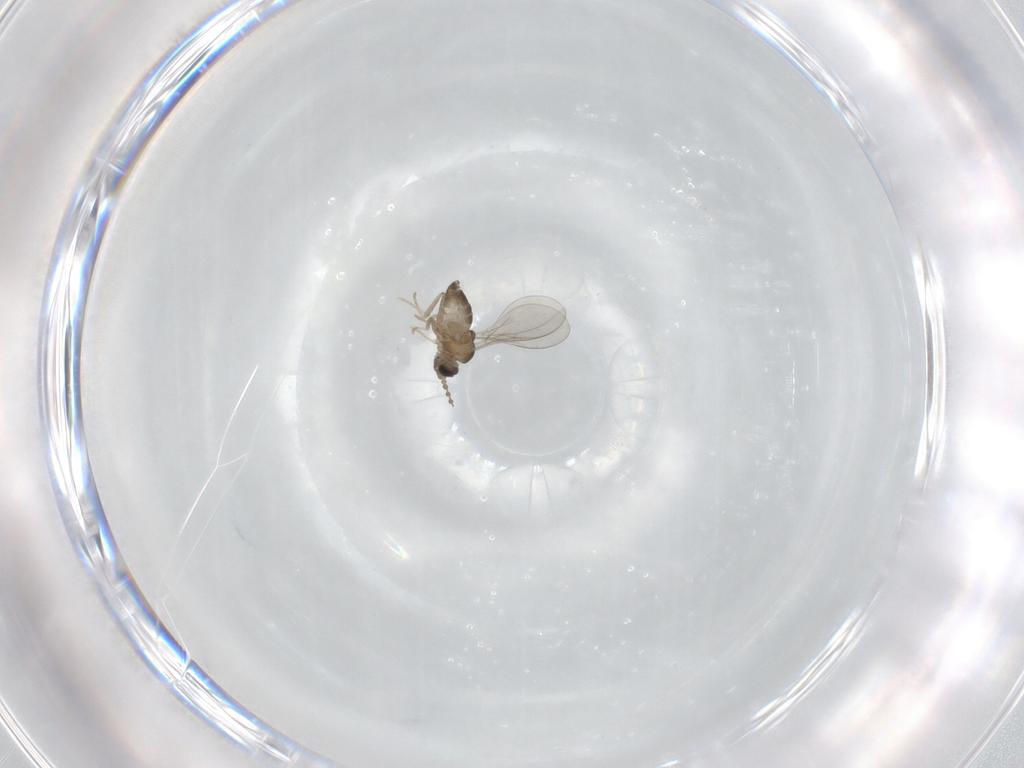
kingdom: Animalia
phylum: Arthropoda
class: Insecta
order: Diptera
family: Cecidomyiidae
